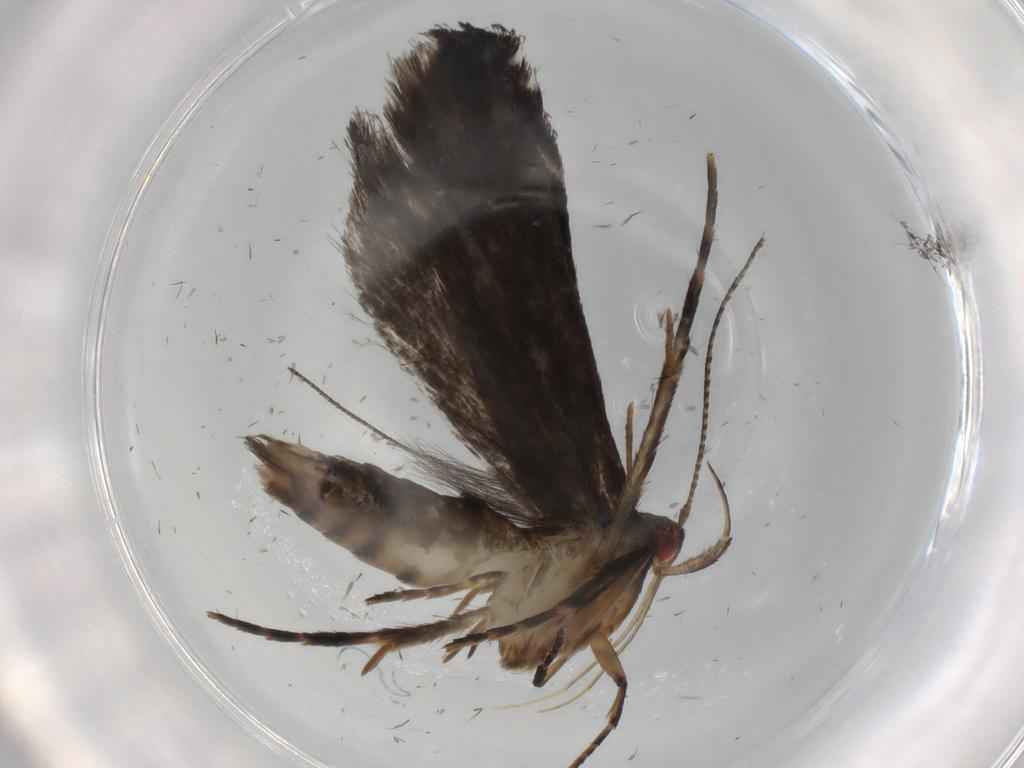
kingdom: Animalia
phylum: Arthropoda
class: Insecta
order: Lepidoptera
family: Gelechiidae
